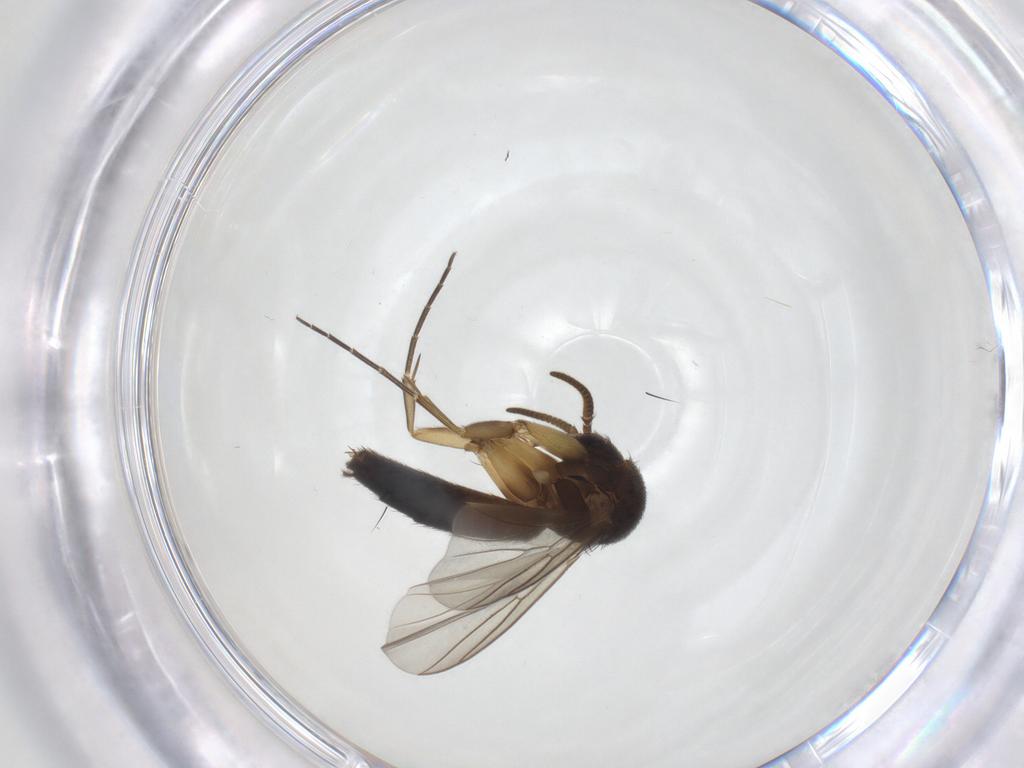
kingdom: Animalia
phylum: Arthropoda
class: Insecta
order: Diptera
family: Mycetophilidae
